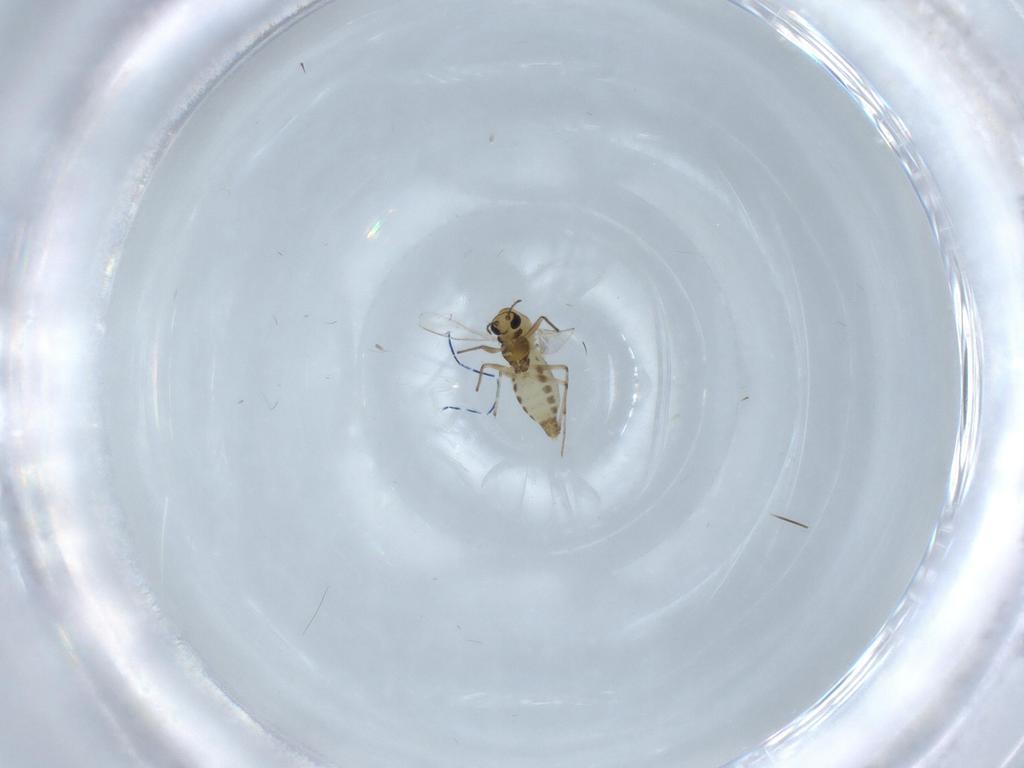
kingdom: Animalia
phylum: Arthropoda
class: Insecta
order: Diptera
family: Chironomidae
